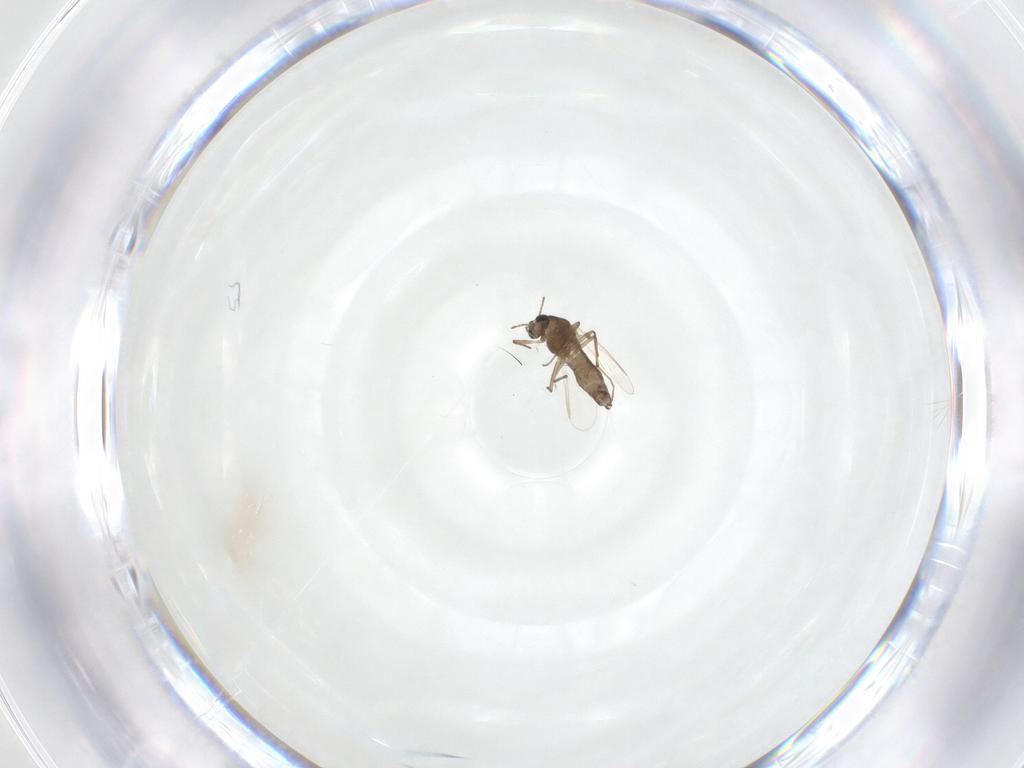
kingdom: Animalia
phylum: Arthropoda
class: Insecta
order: Diptera
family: Chironomidae
